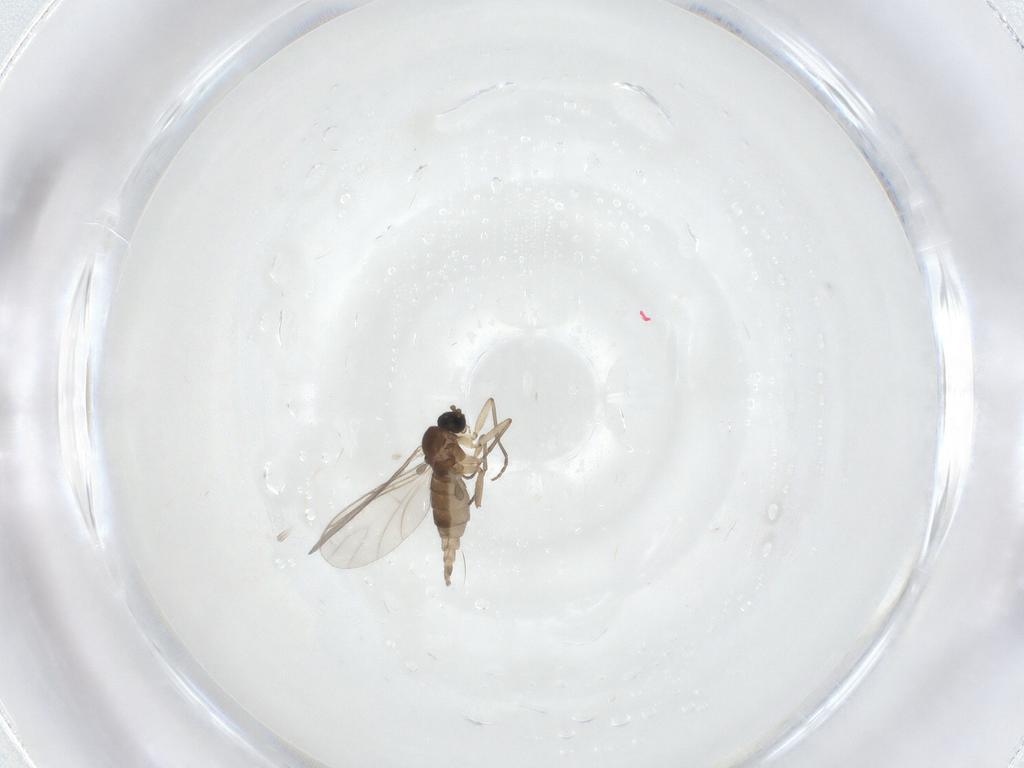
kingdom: Animalia
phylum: Arthropoda
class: Insecta
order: Diptera
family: Sciaridae
